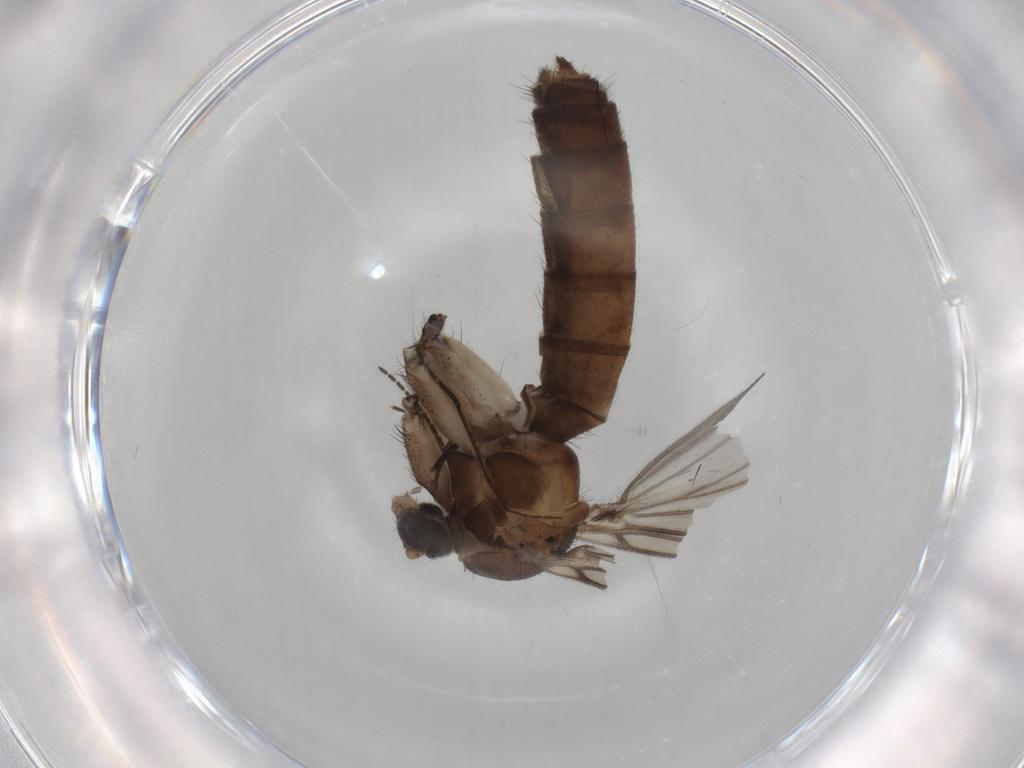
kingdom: Animalia
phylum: Arthropoda
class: Insecta
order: Diptera
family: Mycetophilidae
